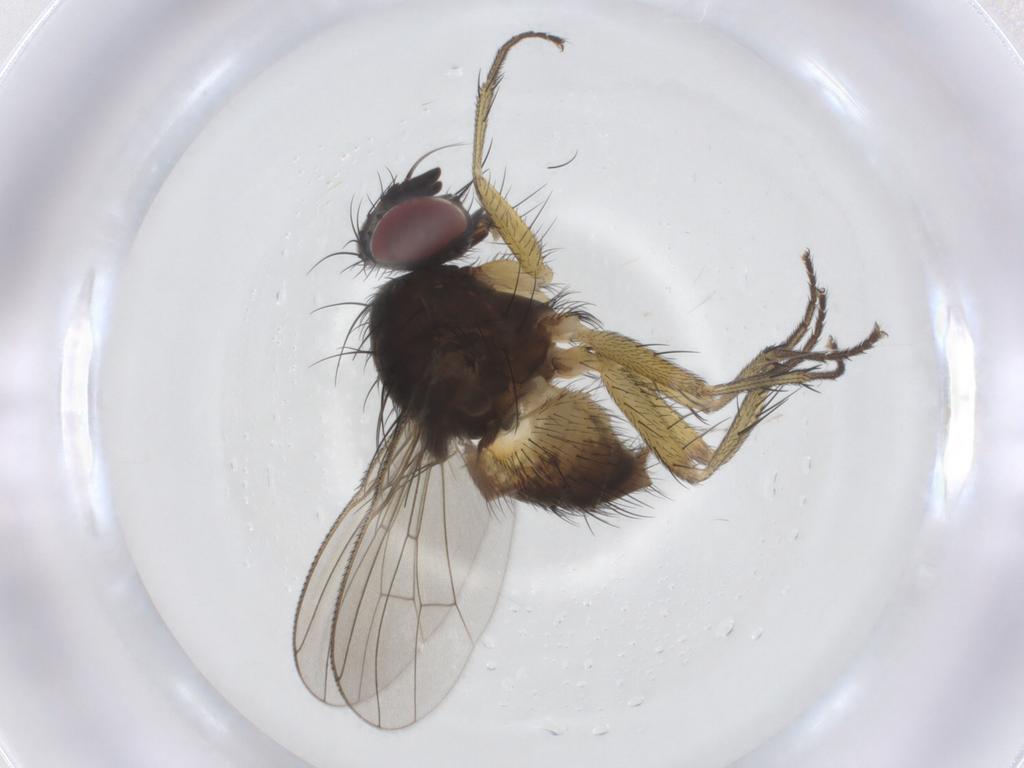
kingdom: Animalia
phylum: Arthropoda
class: Insecta
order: Diptera
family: Muscidae
